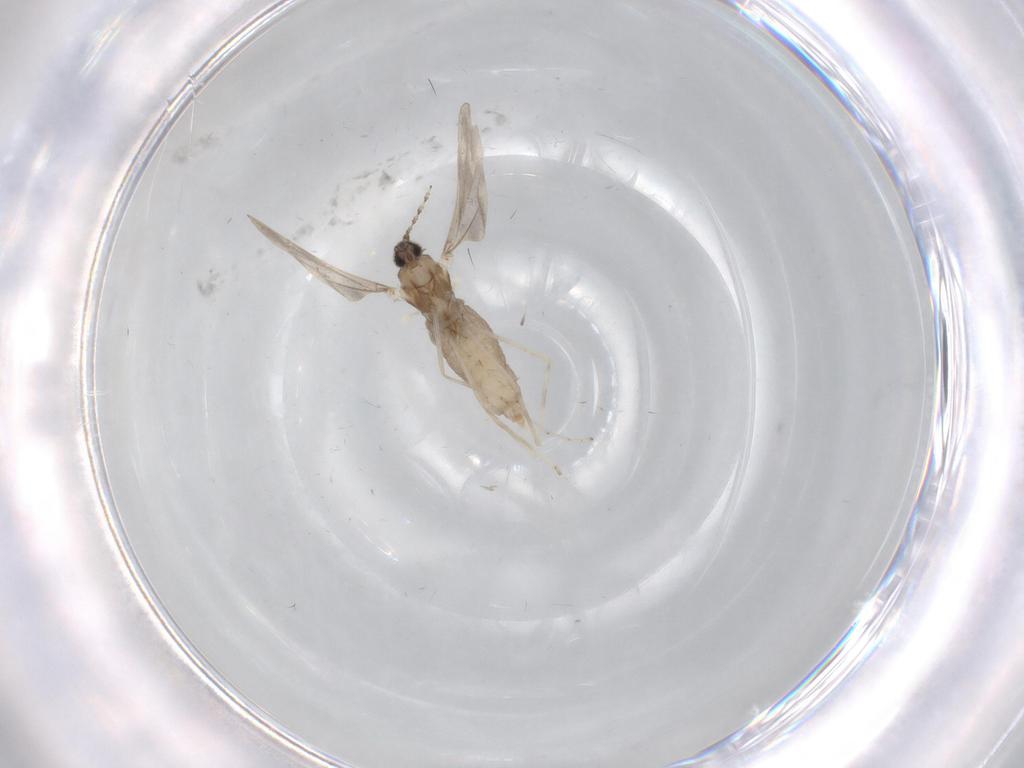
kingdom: Animalia
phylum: Arthropoda
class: Insecta
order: Diptera
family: Cecidomyiidae
